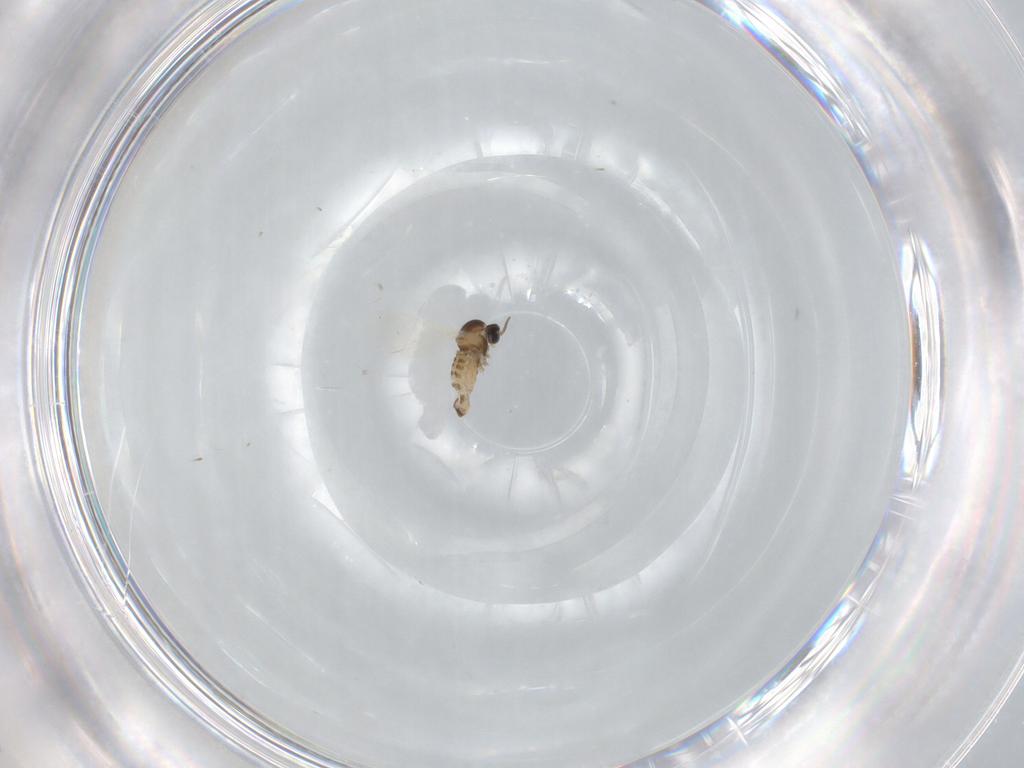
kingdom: Animalia
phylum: Arthropoda
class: Insecta
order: Diptera
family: Cecidomyiidae
